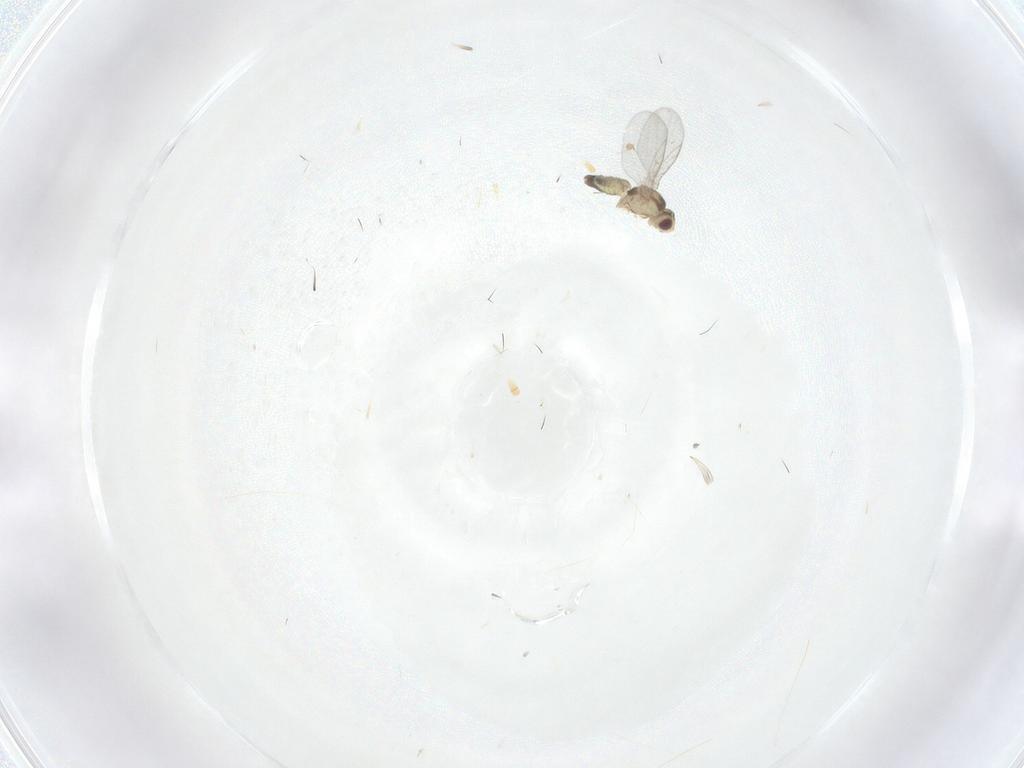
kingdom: Animalia
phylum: Arthropoda
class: Insecta
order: Diptera
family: Agromyzidae
